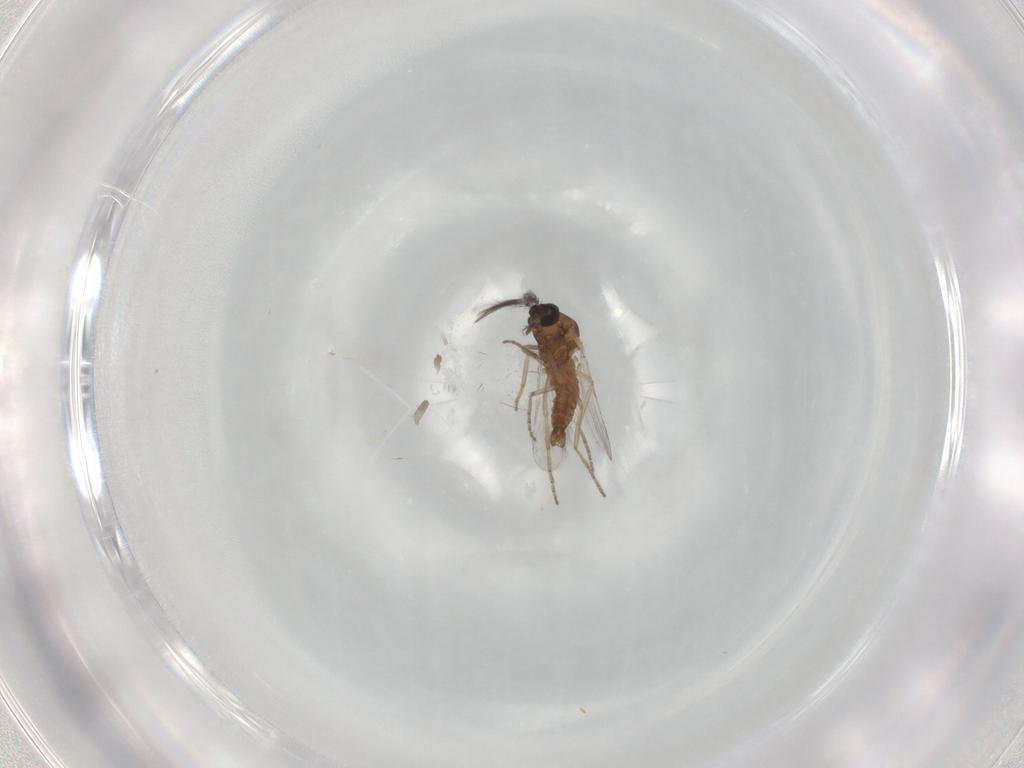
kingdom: Animalia
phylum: Arthropoda
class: Insecta
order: Diptera
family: Cecidomyiidae
